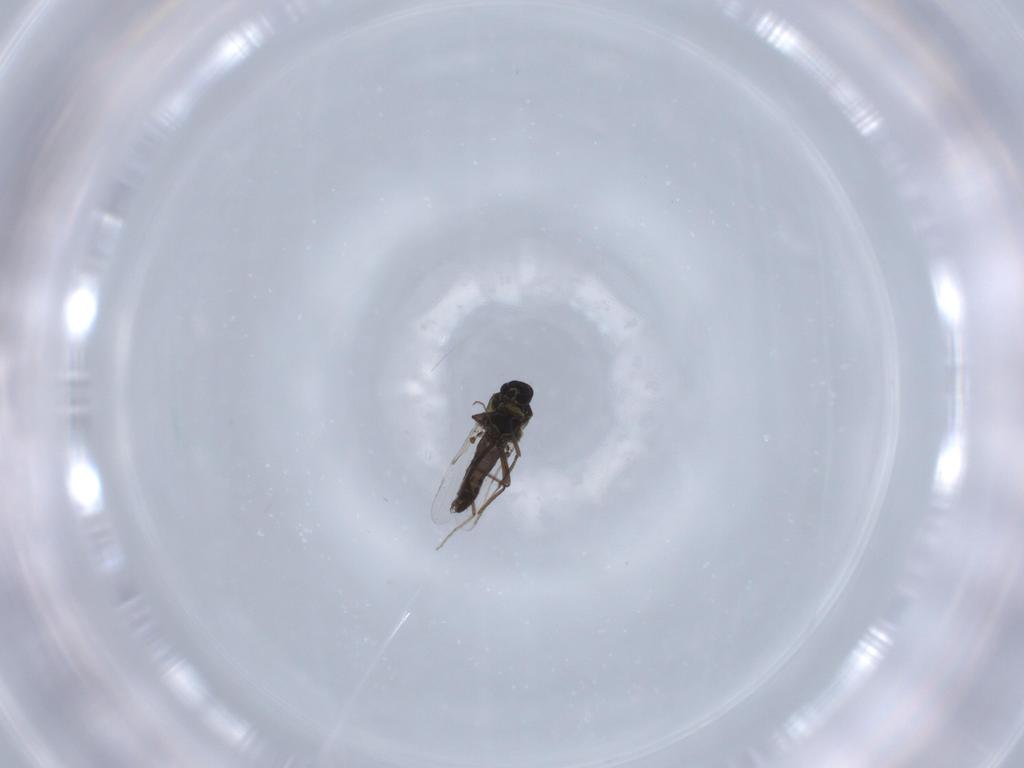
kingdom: Animalia
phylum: Arthropoda
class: Insecta
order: Diptera
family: Ceratopogonidae
